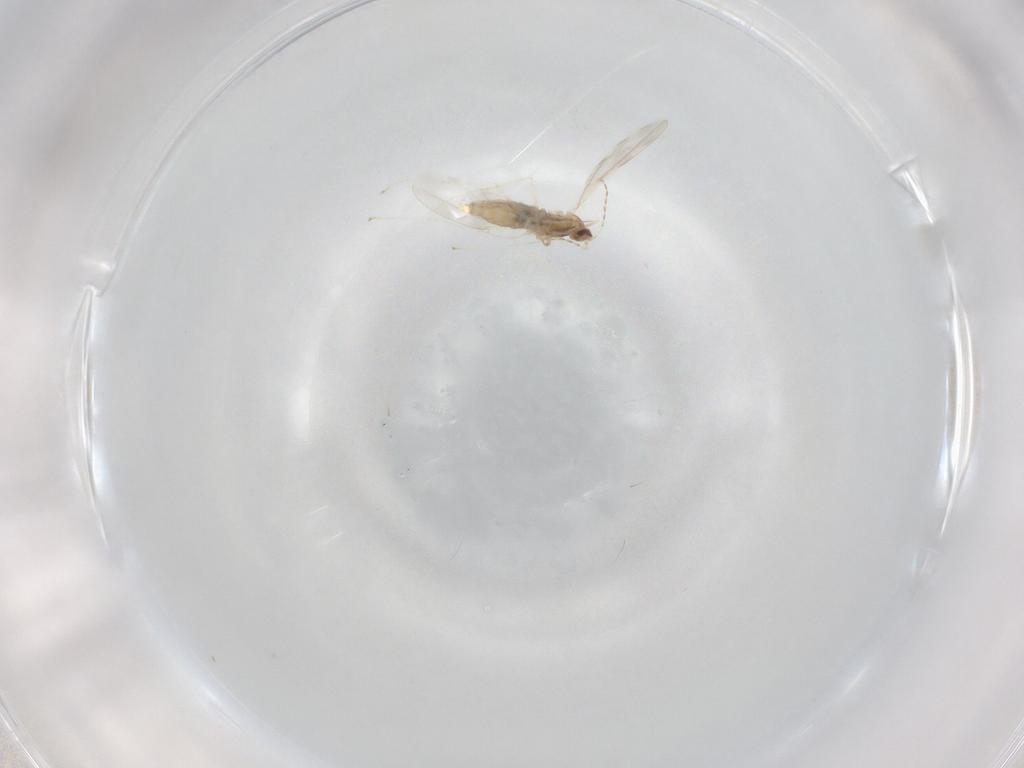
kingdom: Animalia
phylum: Arthropoda
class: Insecta
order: Diptera
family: Cecidomyiidae
